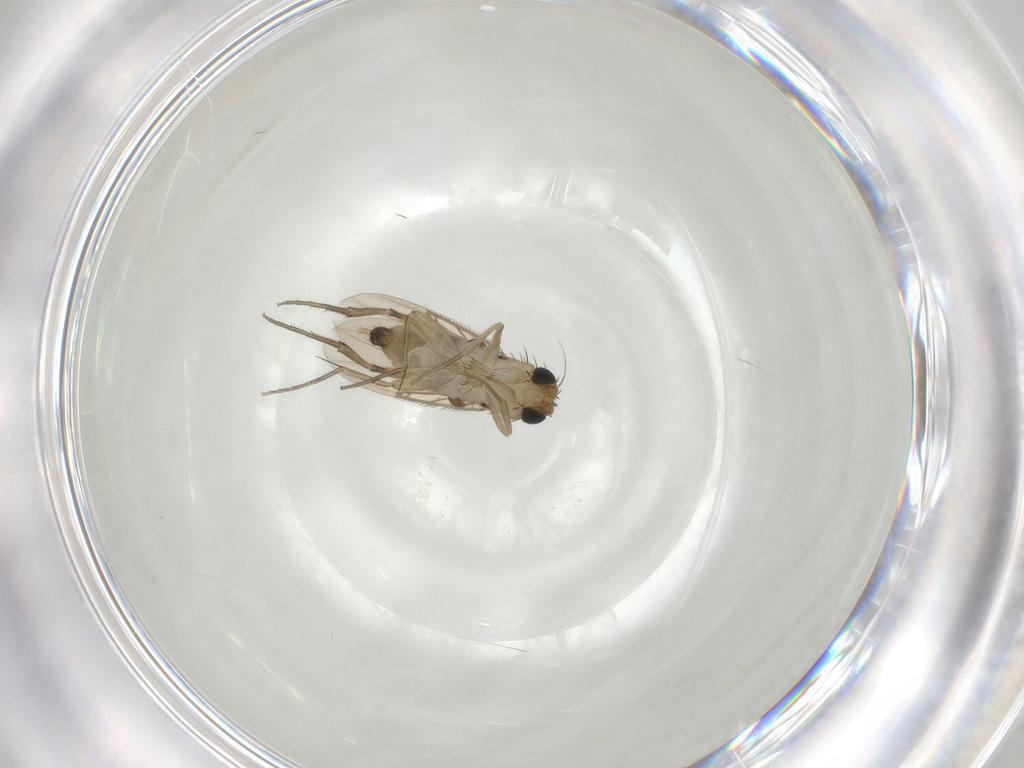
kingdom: Animalia
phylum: Arthropoda
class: Insecta
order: Diptera
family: Phoridae
